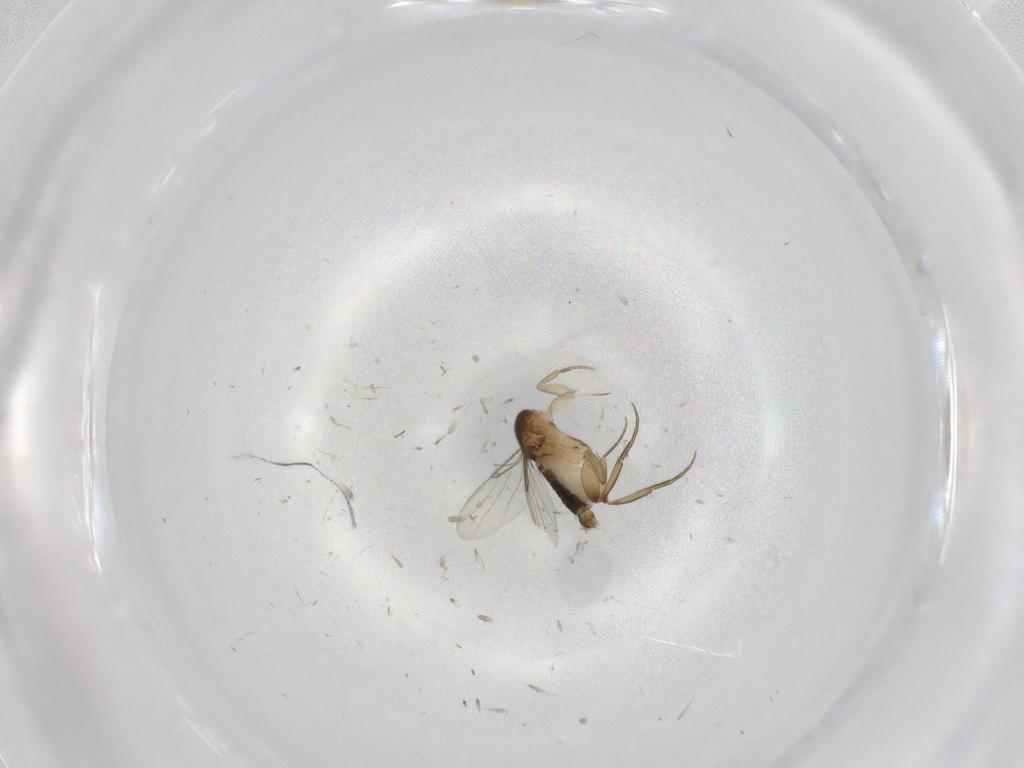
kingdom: Animalia
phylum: Arthropoda
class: Insecta
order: Diptera
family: Phoridae
